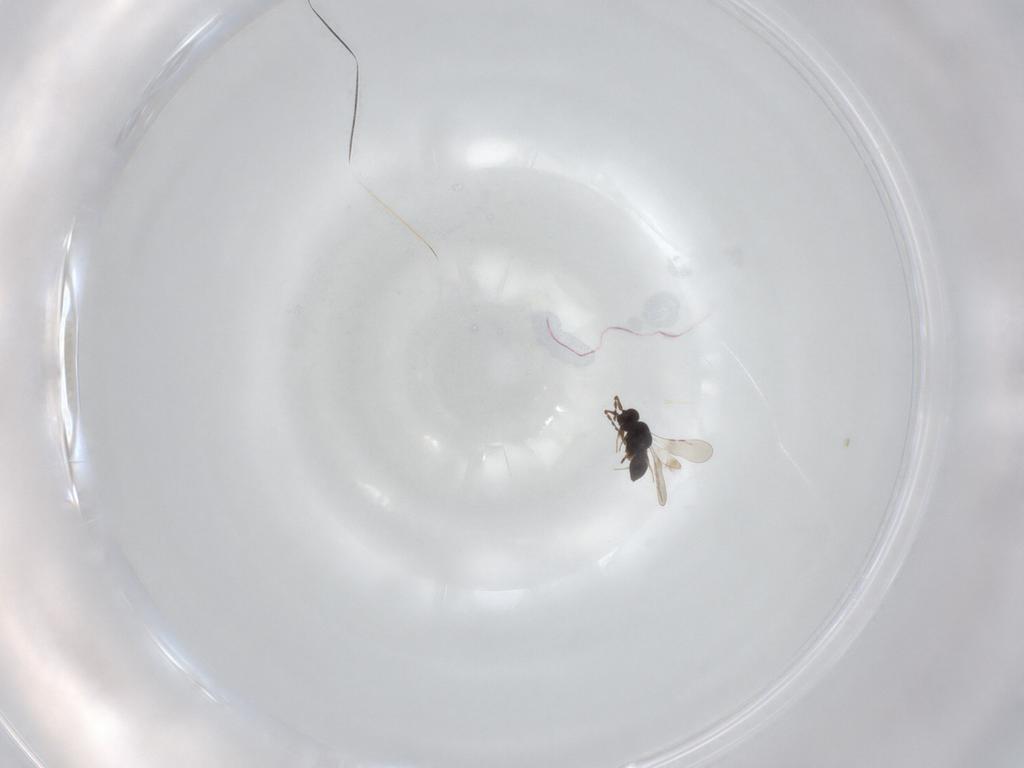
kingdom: Animalia
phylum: Arthropoda
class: Insecta
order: Hymenoptera
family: Ceraphronidae
